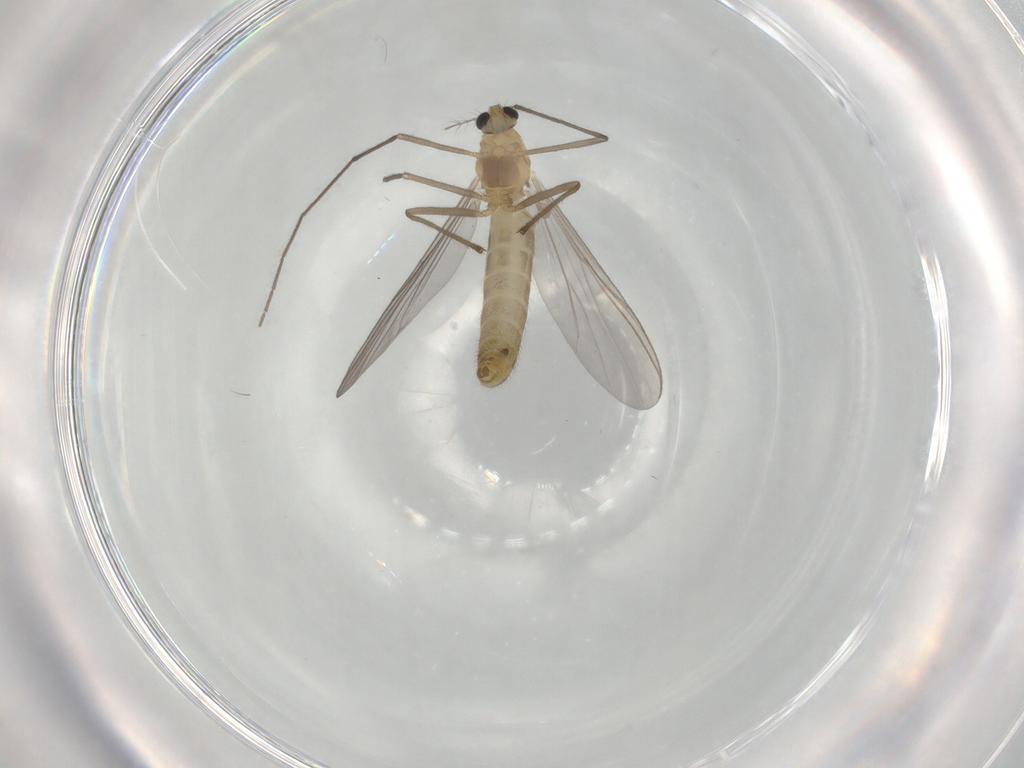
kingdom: Animalia
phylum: Arthropoda
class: Insecta
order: Diptera
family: Chironomidae
